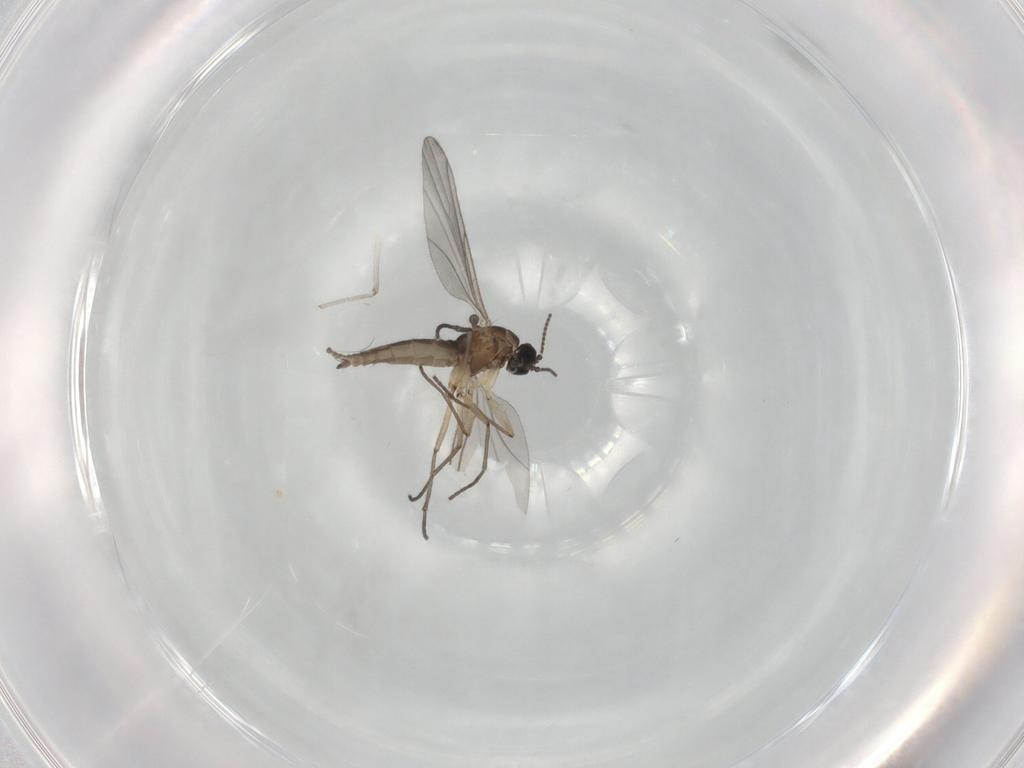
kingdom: Animalia
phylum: Arthropoda
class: Insecta
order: Diptera
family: Sciaridae
